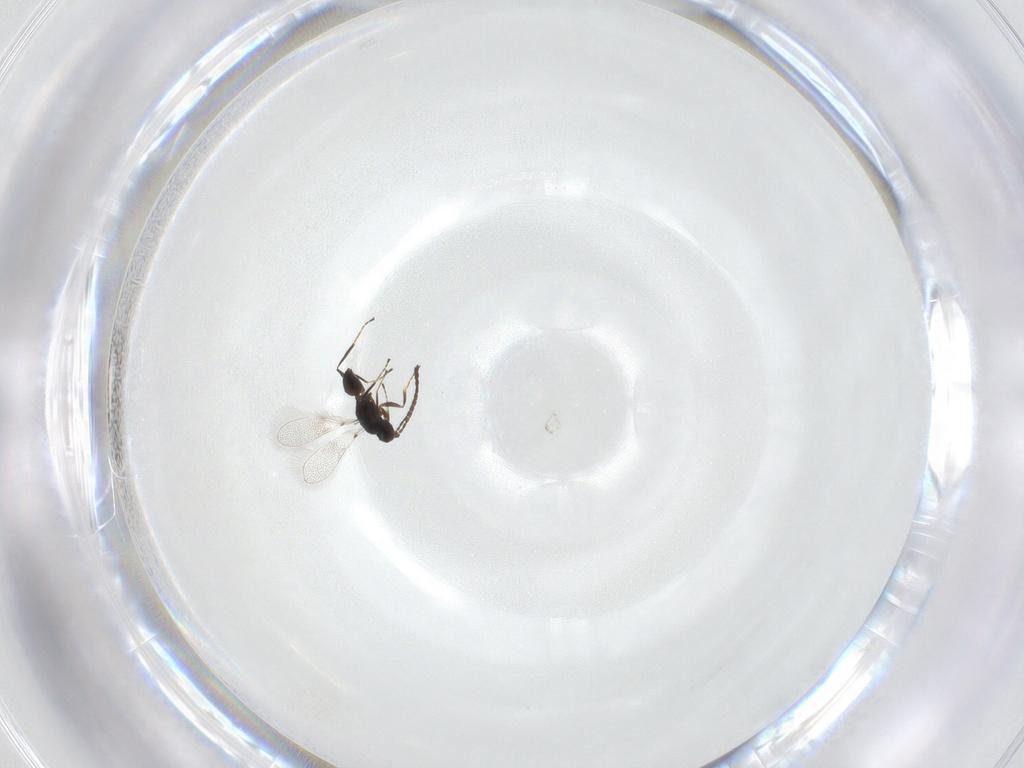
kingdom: Animalia
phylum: Arthropoda
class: Insecta
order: Hymenoptera
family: Mymaridae
